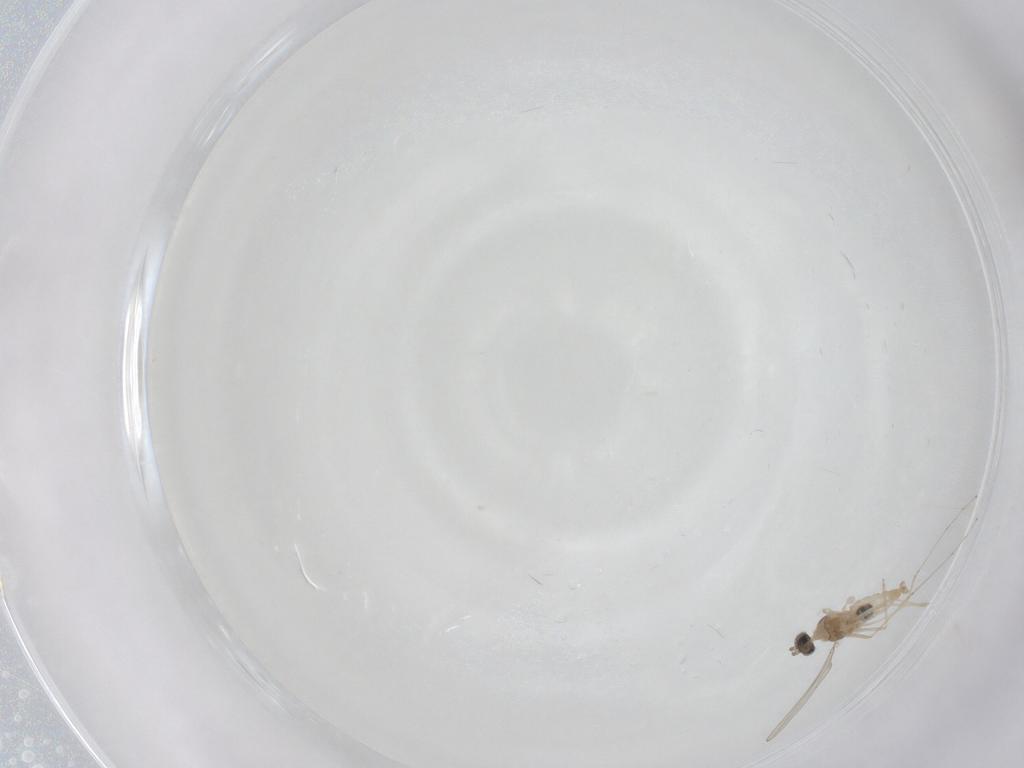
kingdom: Animalia
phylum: Arthropoda
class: Insecta
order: Diptera
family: Cecidomyiidae
